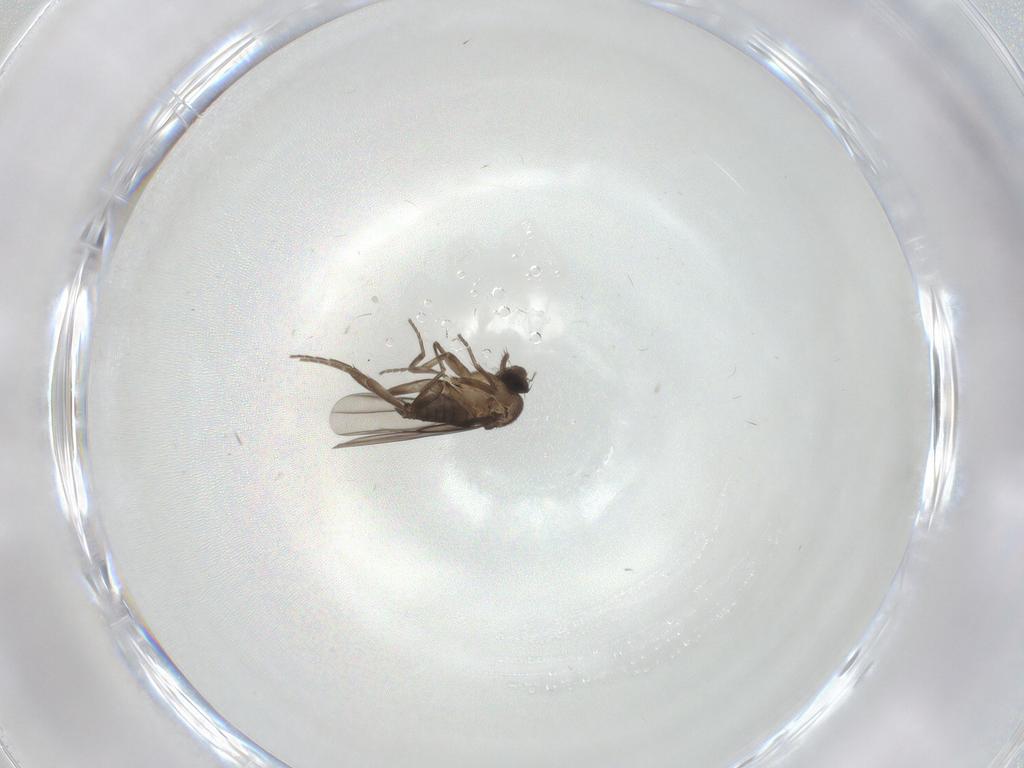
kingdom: Animalia
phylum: Arthropoda
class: Insecta
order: Diptera
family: Phoridae
